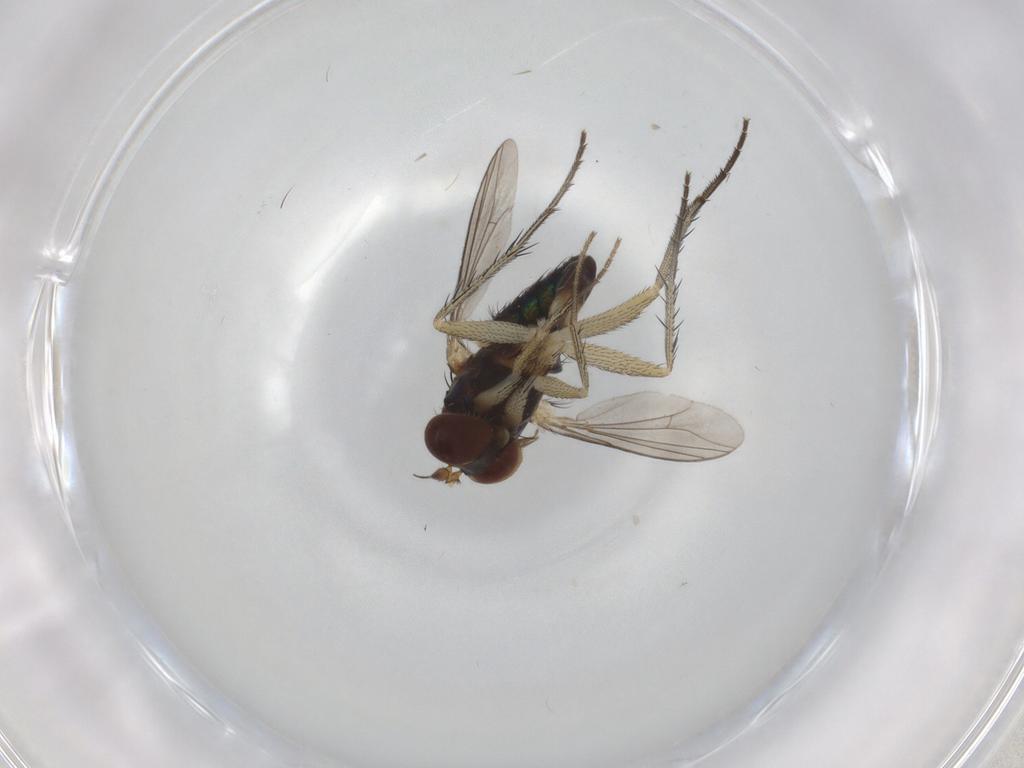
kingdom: Animalia
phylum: Arthropoda
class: Insecta
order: Diptera
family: Dolichopodidae
